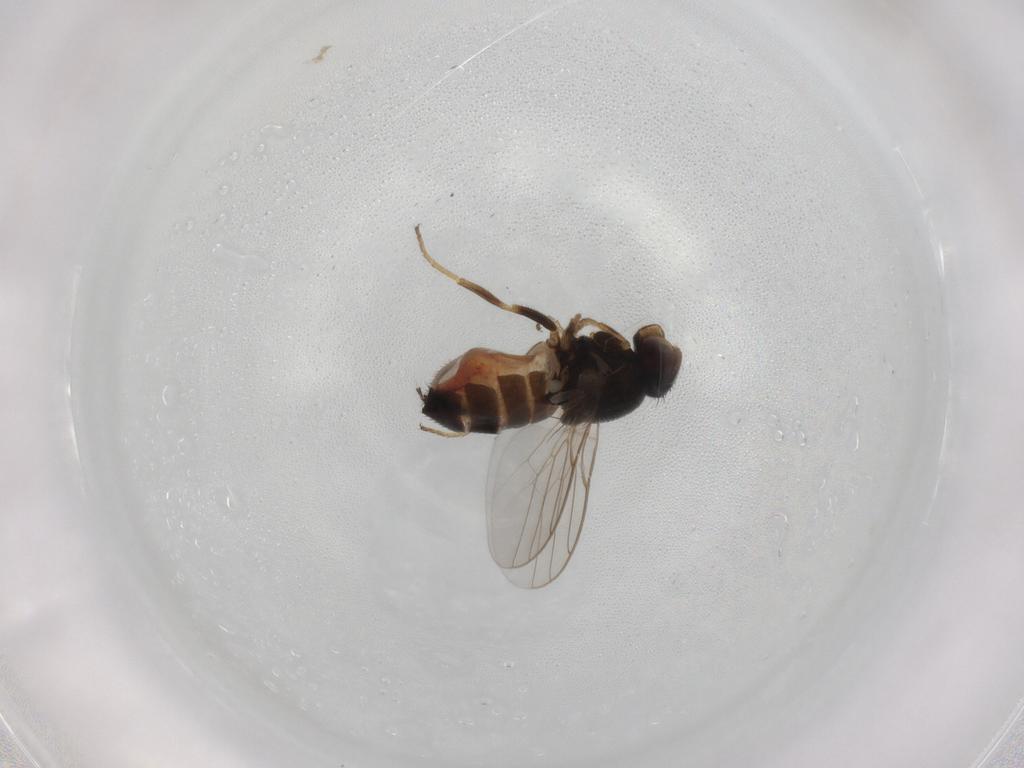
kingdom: Animalia
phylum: Arthropoda
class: Insecta
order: Diptera
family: Chloropidae
